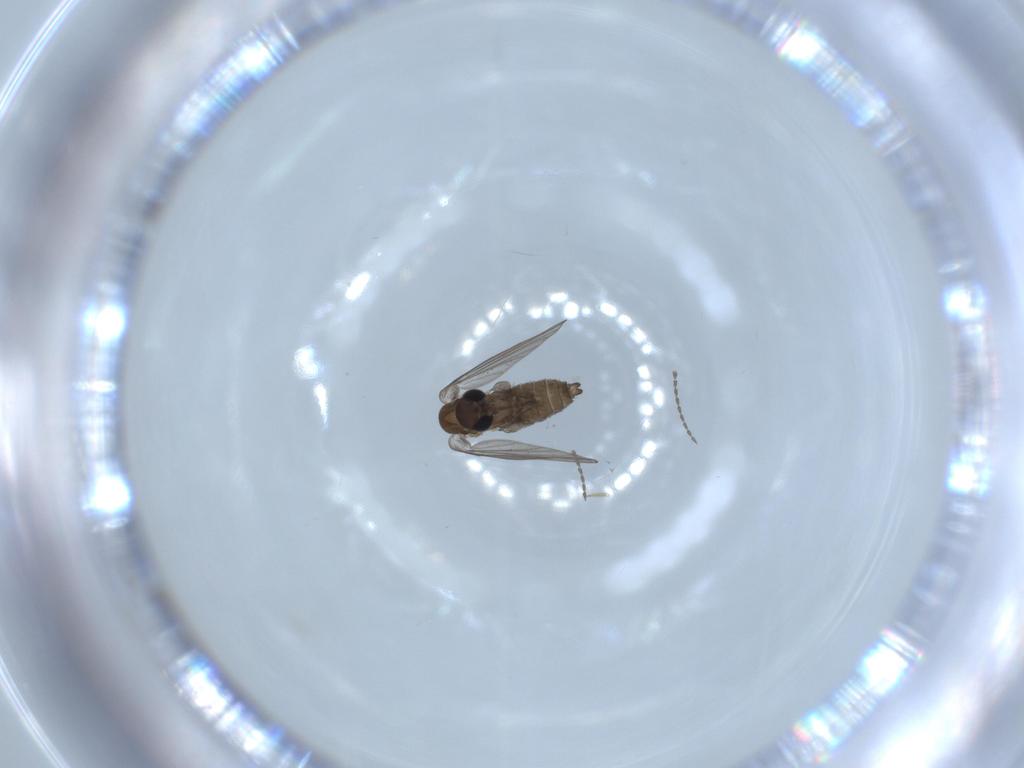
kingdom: Animalia
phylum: Arthropoda
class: Insecta
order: Diptera
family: Psychodidae
